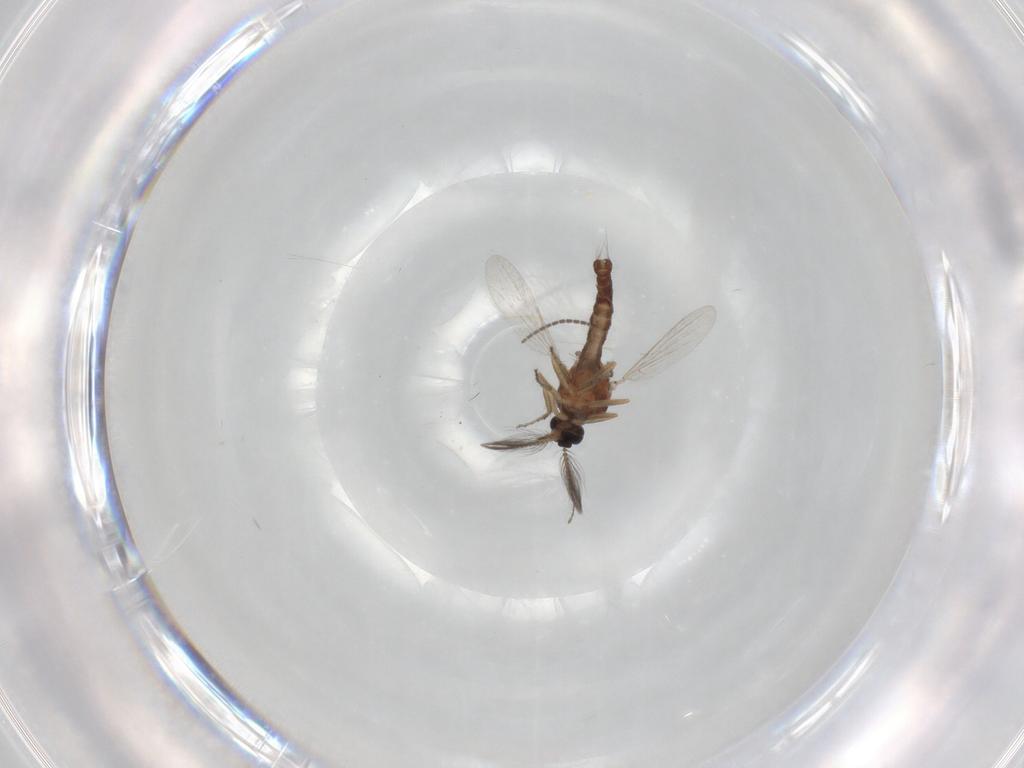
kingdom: Animalia
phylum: Arthropoda
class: Insecta
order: Diptera
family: Ceratopogonidae
